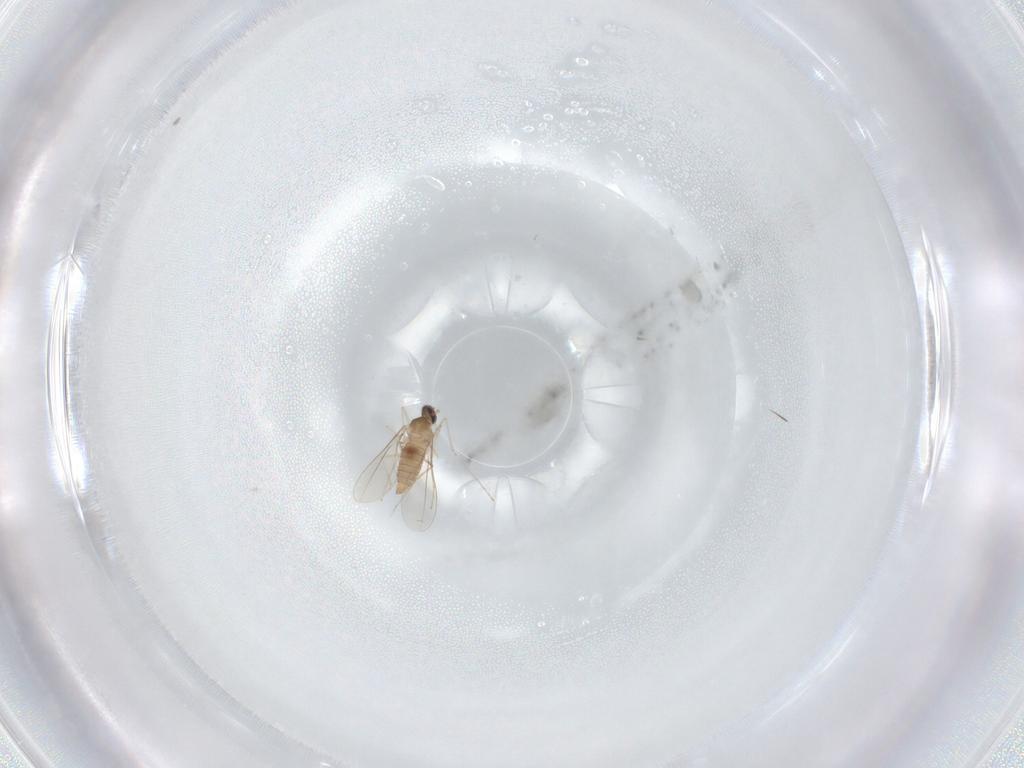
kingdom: Animalia
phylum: Arthropoda
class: Insecta
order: Diptera
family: Cecidomyiidae
